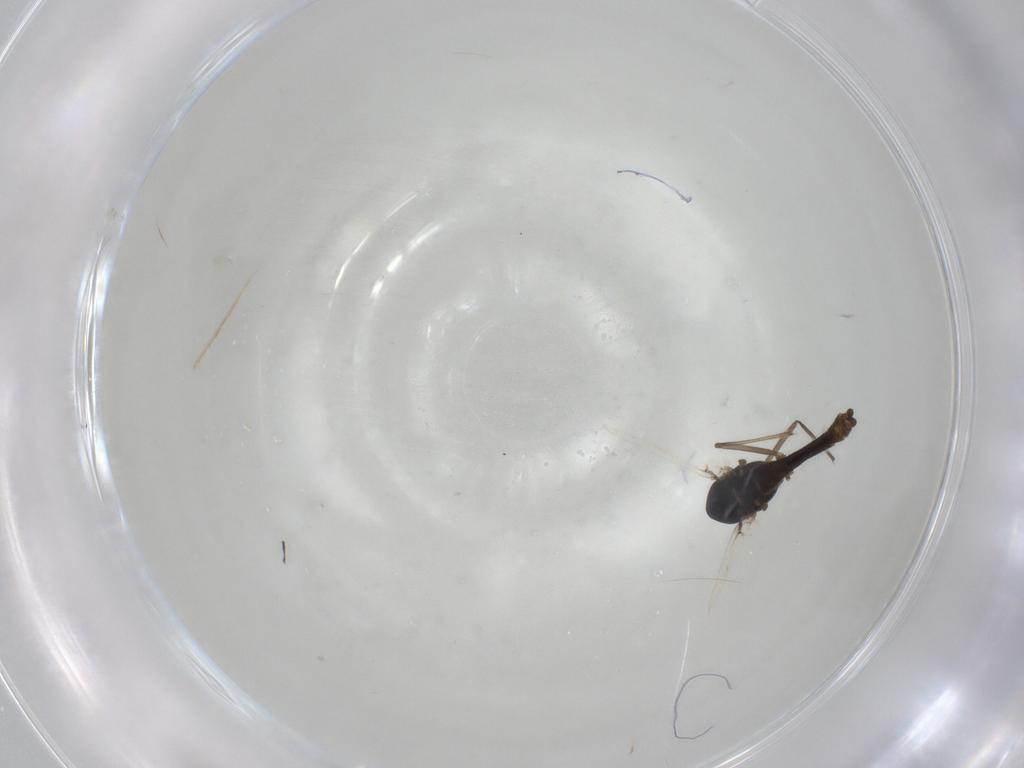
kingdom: Animalia
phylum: Arthropoda
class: Insecta
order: Diptera
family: Chironomidae
